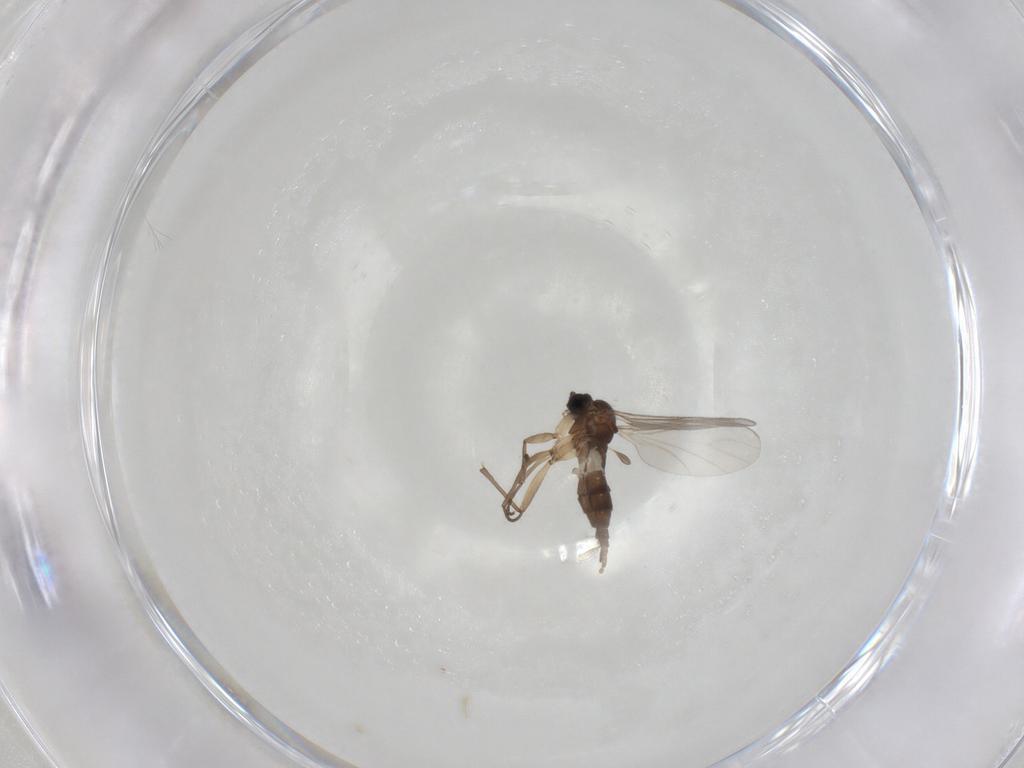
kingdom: Animalia
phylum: Arthropoda
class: Insecta
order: Diptera
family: Sciaridae
